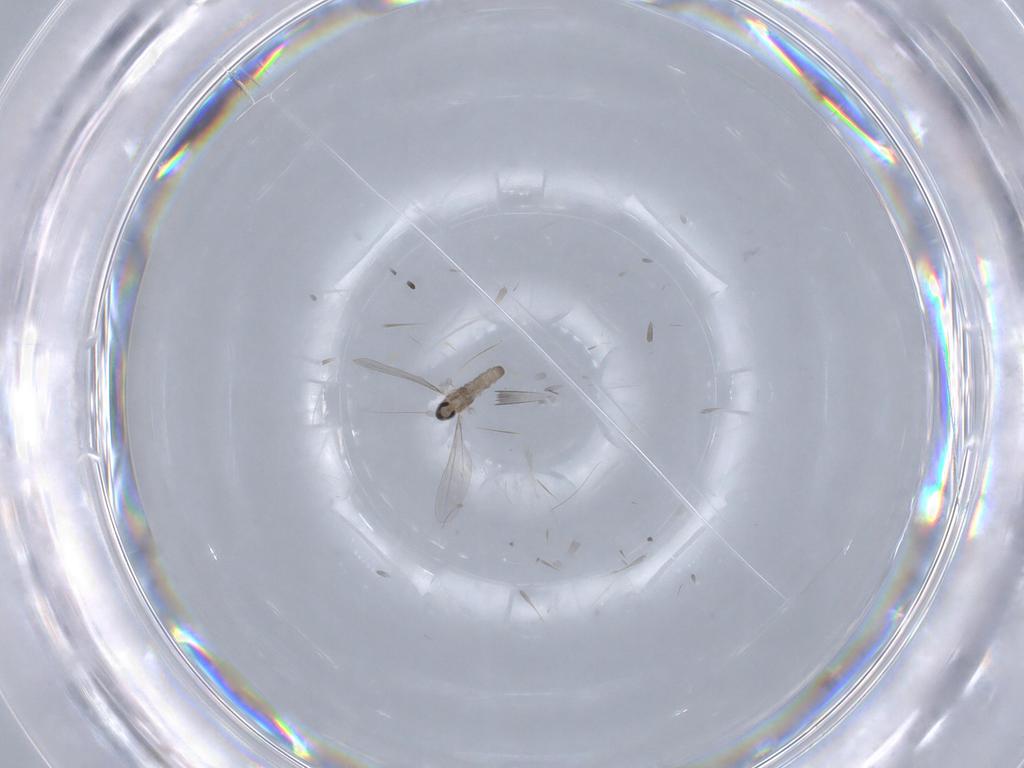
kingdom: Animalia
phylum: Arthropoda
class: Insecta
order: Diptera
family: Cecidomyiidae
